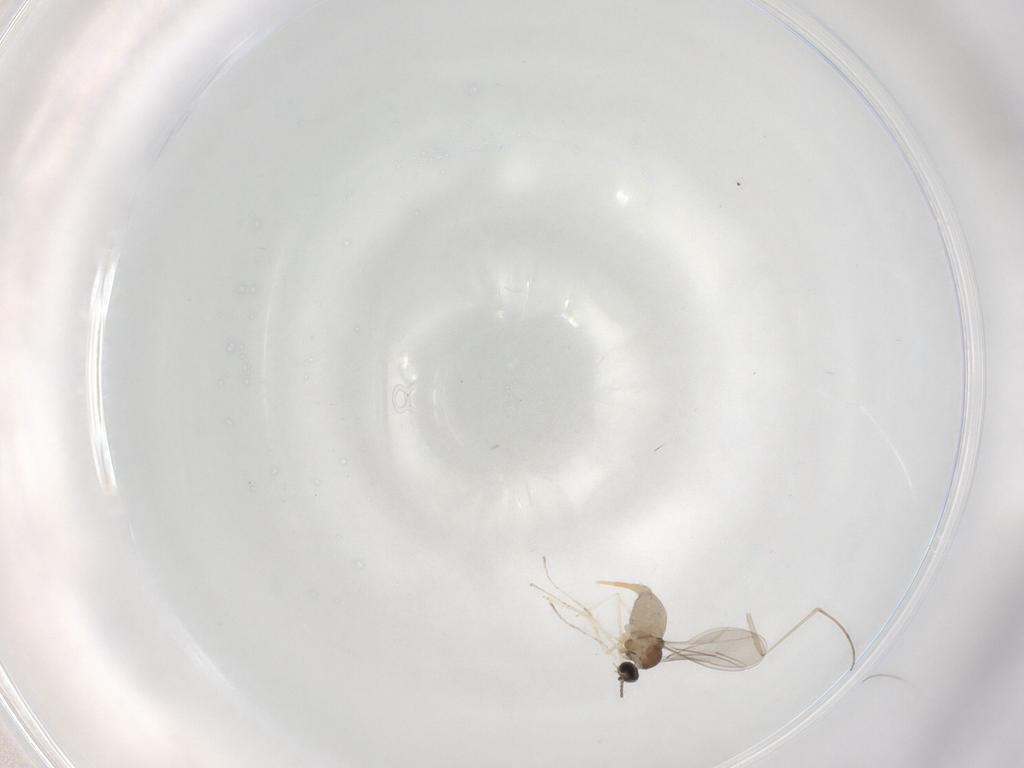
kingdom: Animalia
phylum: Arthropoda
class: Insecta
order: Diptera
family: Cecidomyiidae
